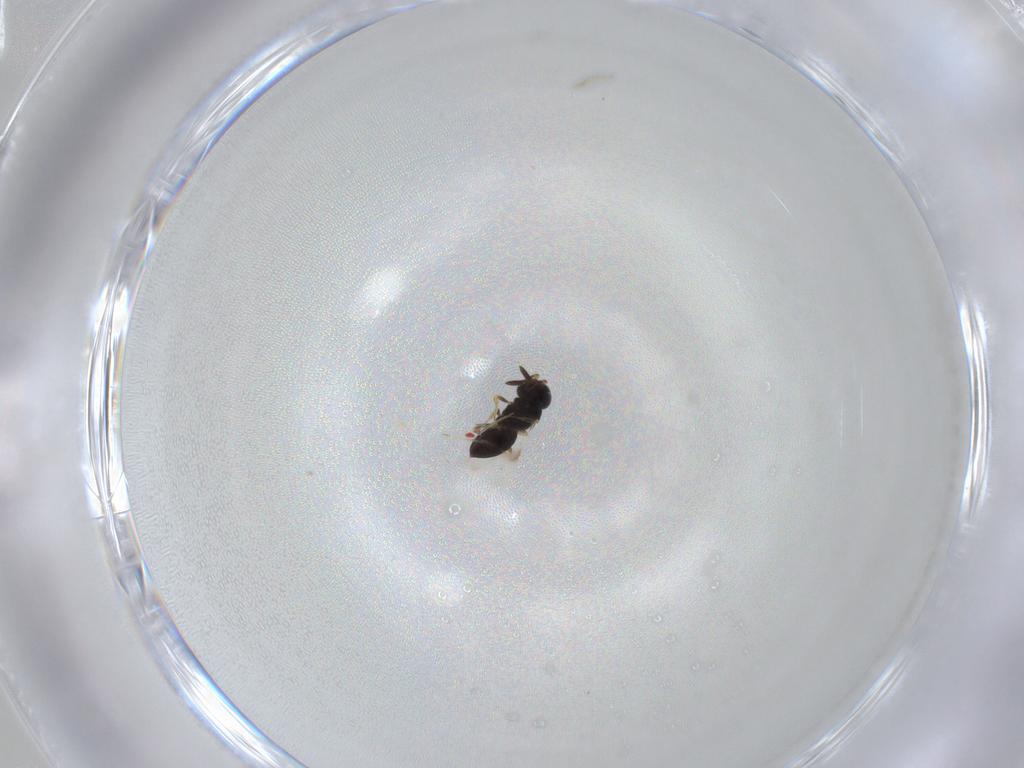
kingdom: Animalia
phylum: Arthropoda
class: Insecta
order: Hymenoptera
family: Scelionidae
